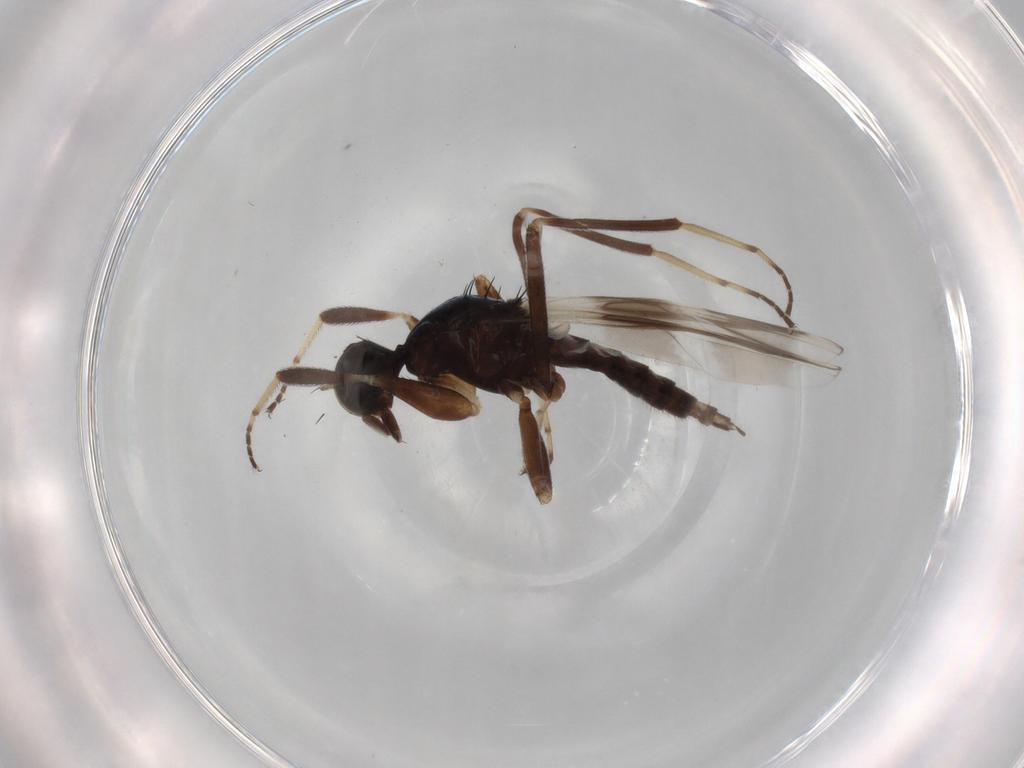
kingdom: Animalia
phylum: Arthropoda
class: Insecta
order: Diptera
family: Hybotidae
